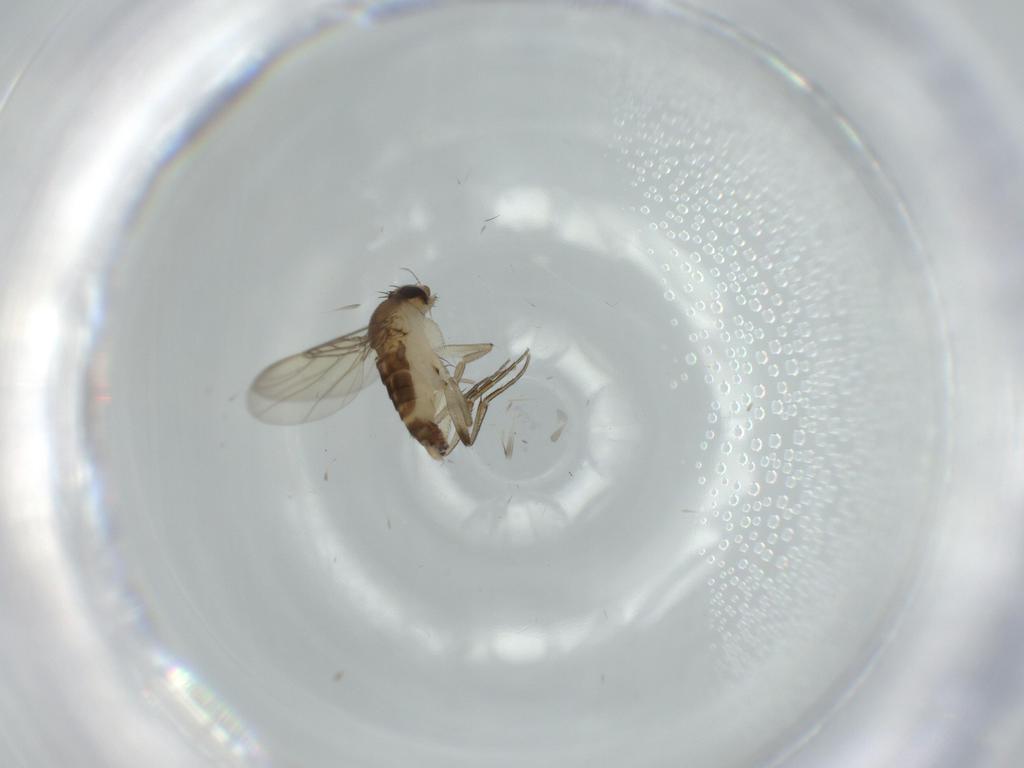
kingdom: Animalia
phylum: Arthropoda
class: Insecta
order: Diptera
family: Phoridae
